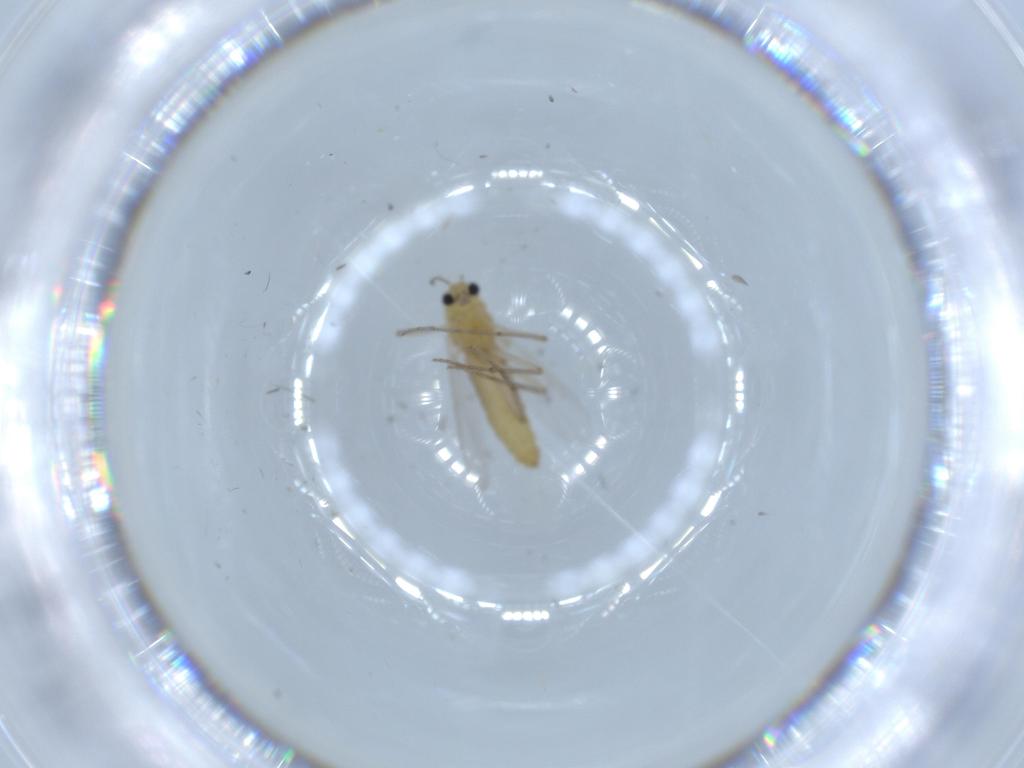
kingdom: Animalia
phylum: Arthropoda
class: Insecta
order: Diptera
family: Chironomidae
